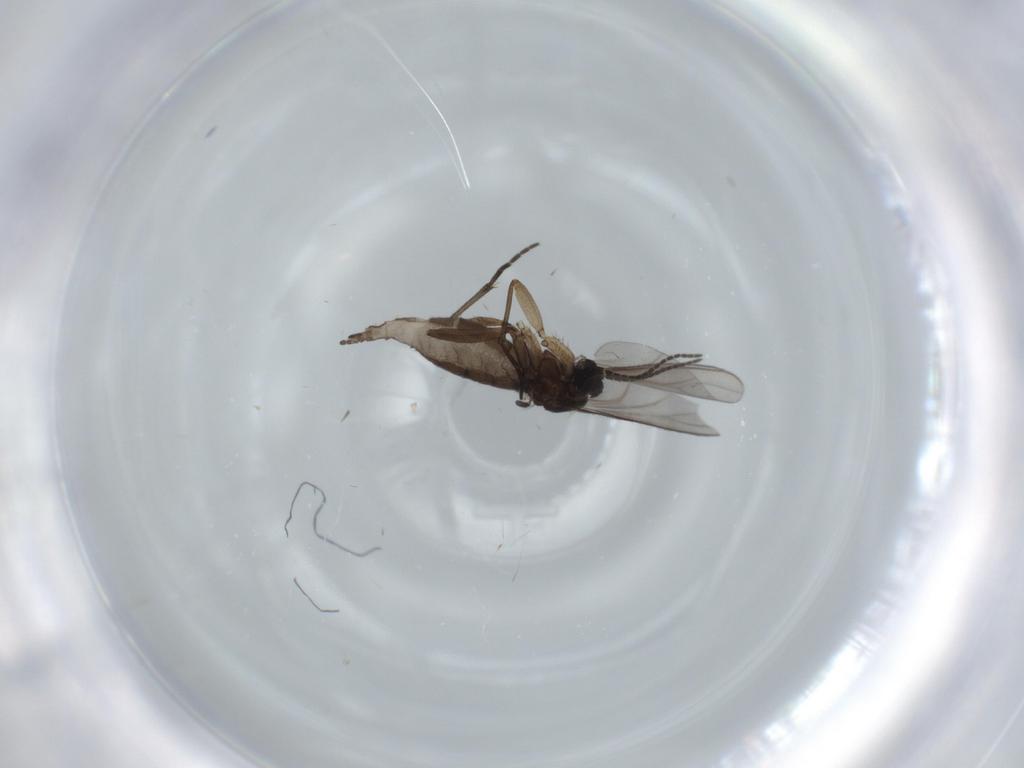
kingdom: Animalia
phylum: Arthropoda
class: Insecta
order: Diptera
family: Sciaridae
